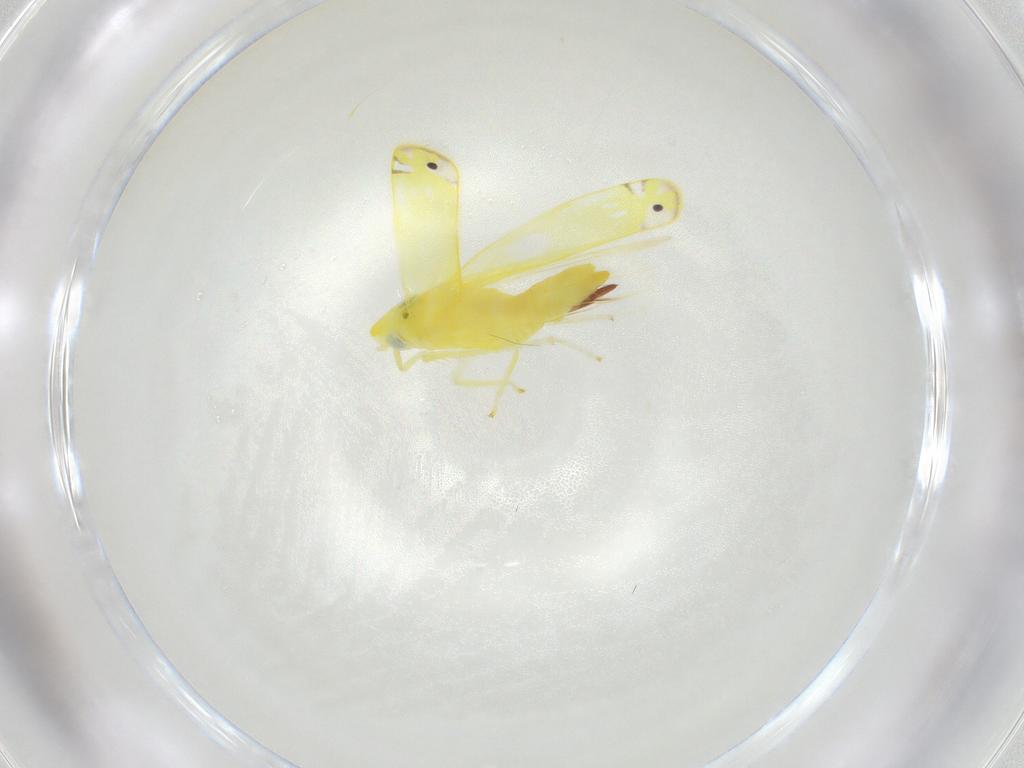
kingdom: Animalia
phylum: Arthropoda
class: Insecta
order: Hemiptera
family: Cicadellidae
